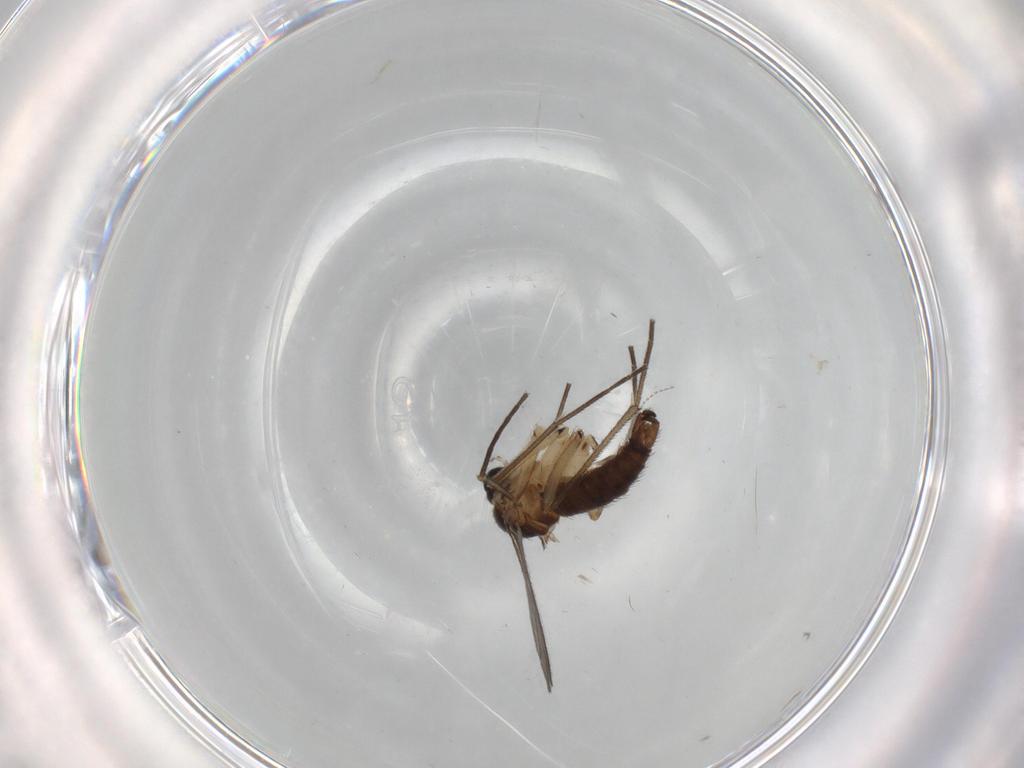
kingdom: Animalia
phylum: Arthropoda
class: Insecta
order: Diptera
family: Sciaridae
